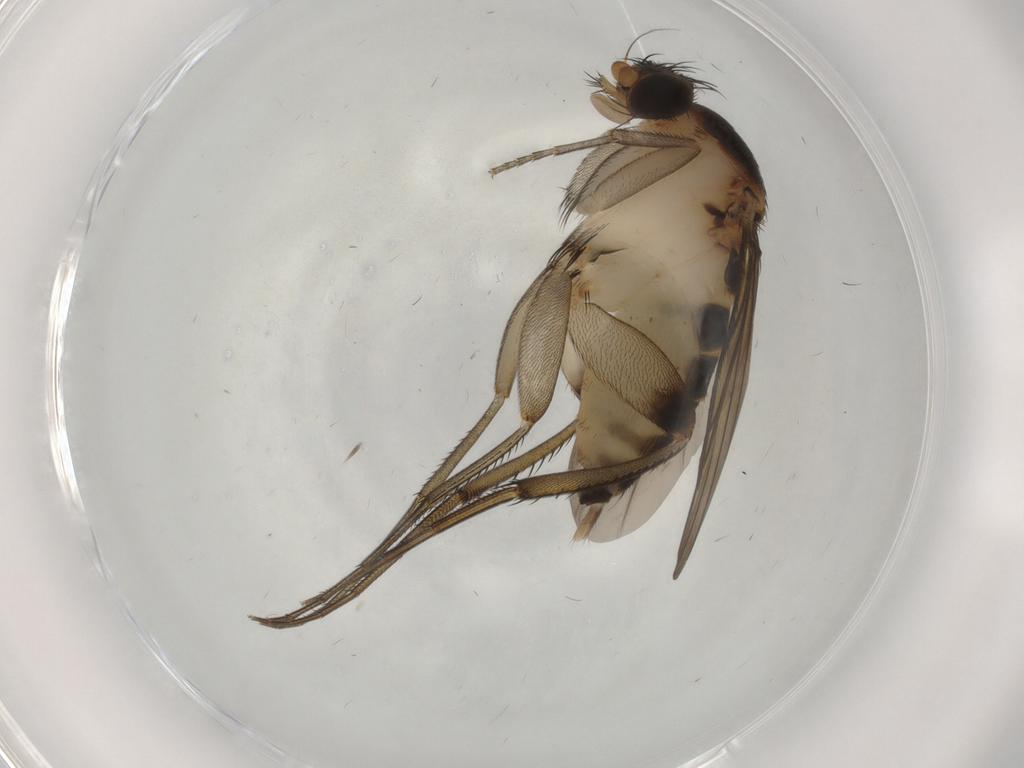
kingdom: Animalia
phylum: Arthropoda
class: Insecta
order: Diptera
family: Phoridae
